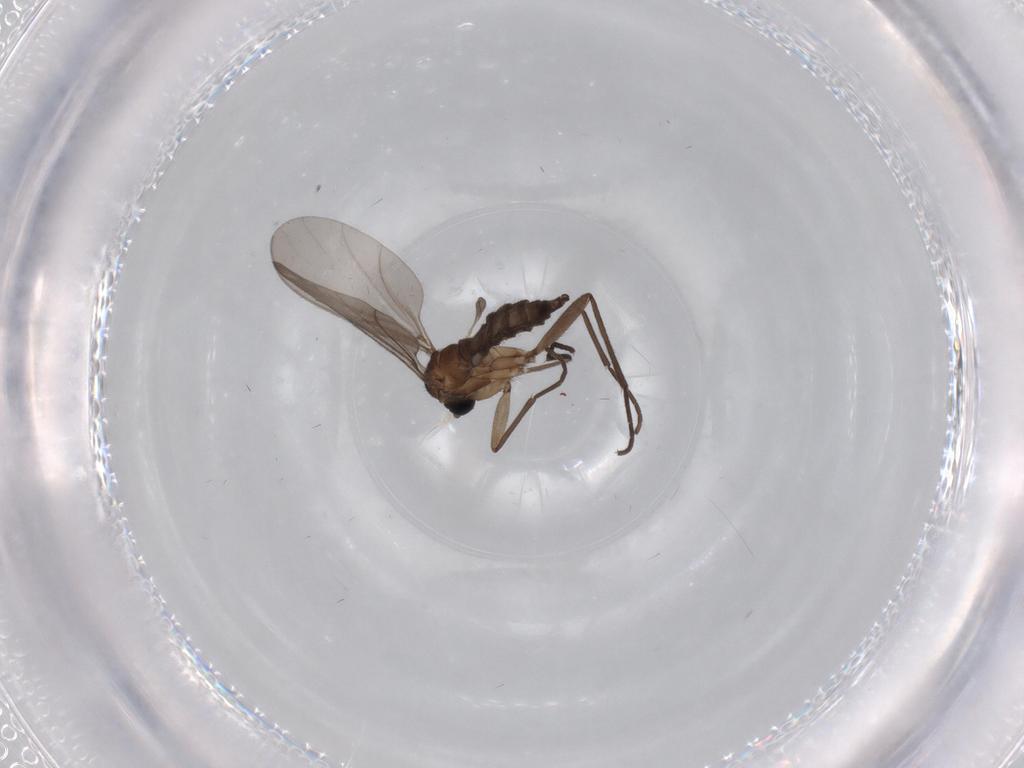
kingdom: Animalia
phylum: Arthropoda
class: Insecta
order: Diptera
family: Sciaridae
